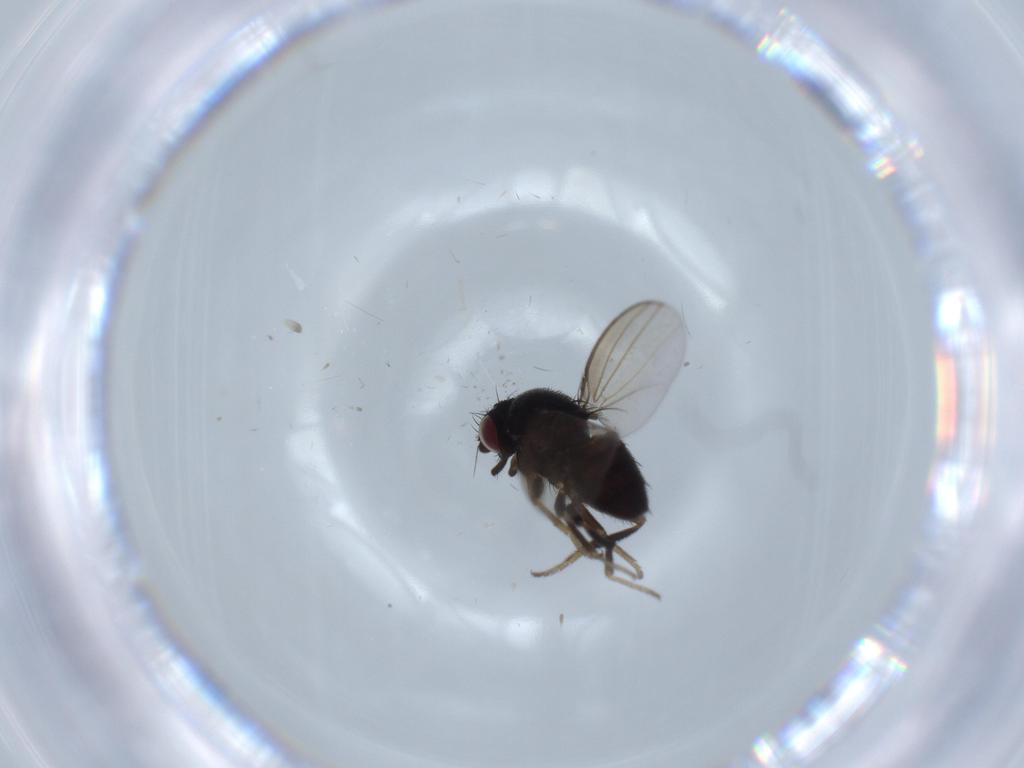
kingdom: Animalia
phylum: Arthropoda
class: Insecta
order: Diptera
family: Milichiidae
